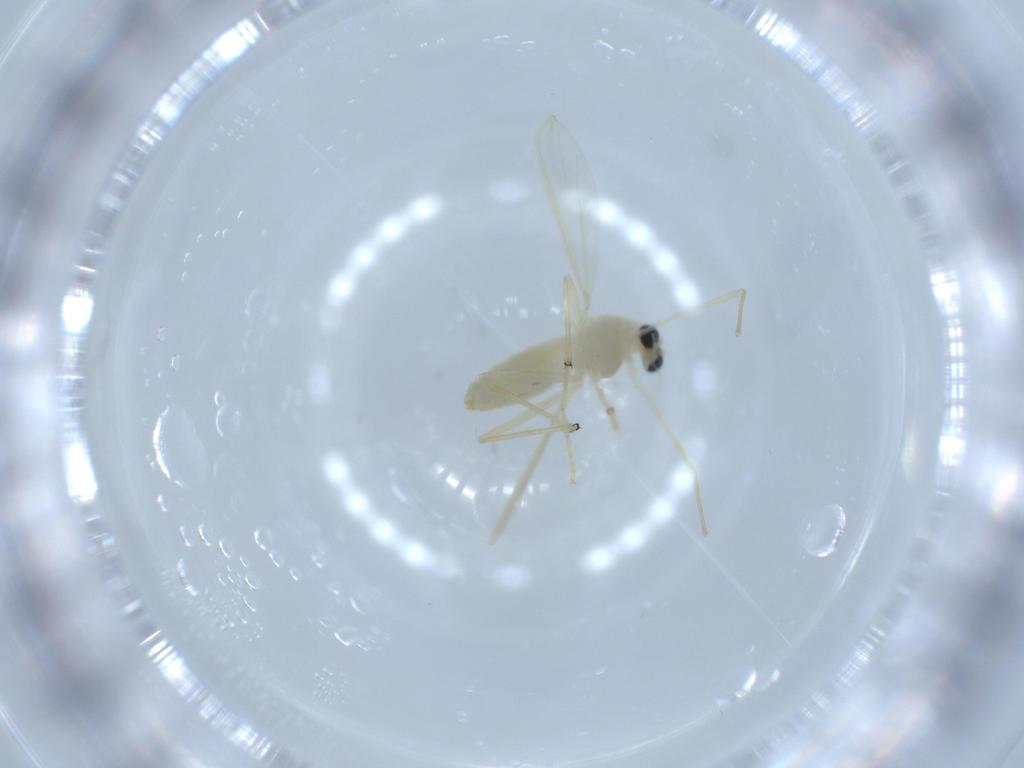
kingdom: Animalia
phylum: Arthropoda
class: Insecta
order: Diptera
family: Chironomidae
